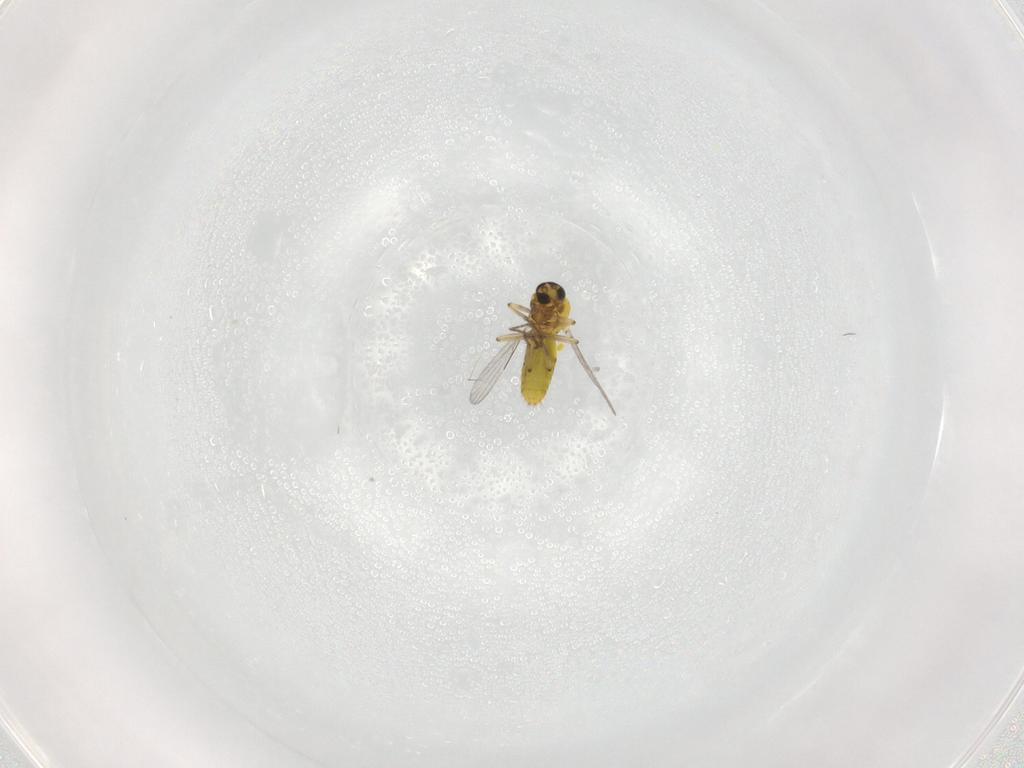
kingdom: Animalia
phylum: Arthropoda
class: Insecta
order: Diptera
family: Ceratopogonidae
